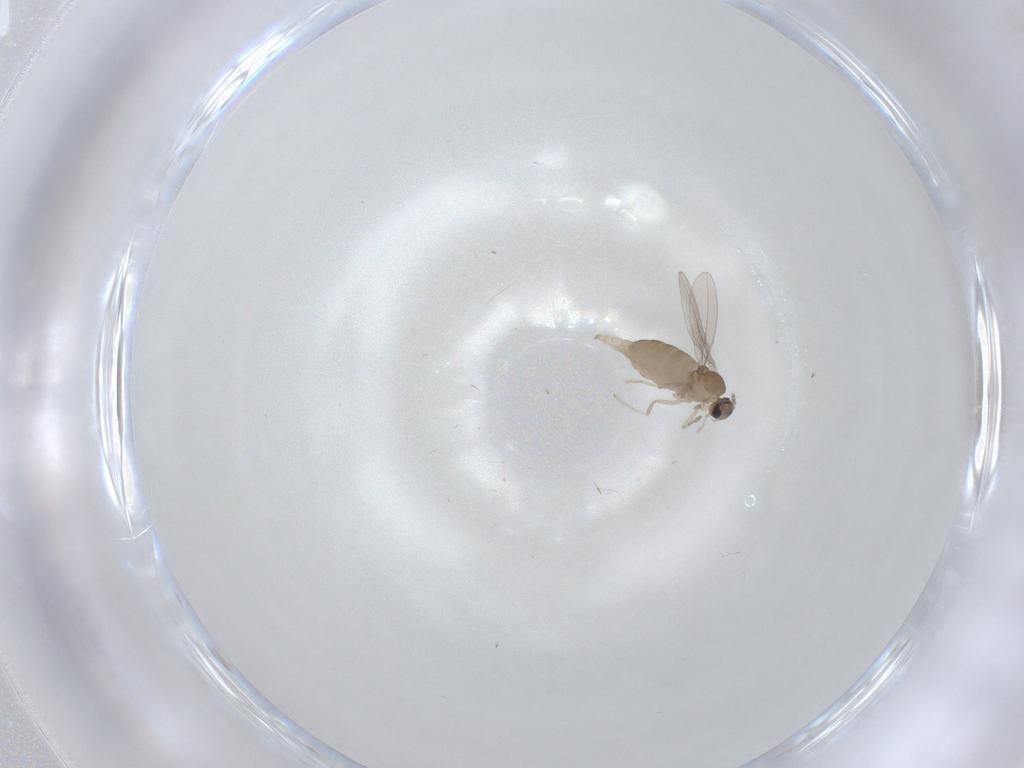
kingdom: Animalia
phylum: Arthropoda
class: Insecta
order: Diptera
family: Cecidomyiidae
